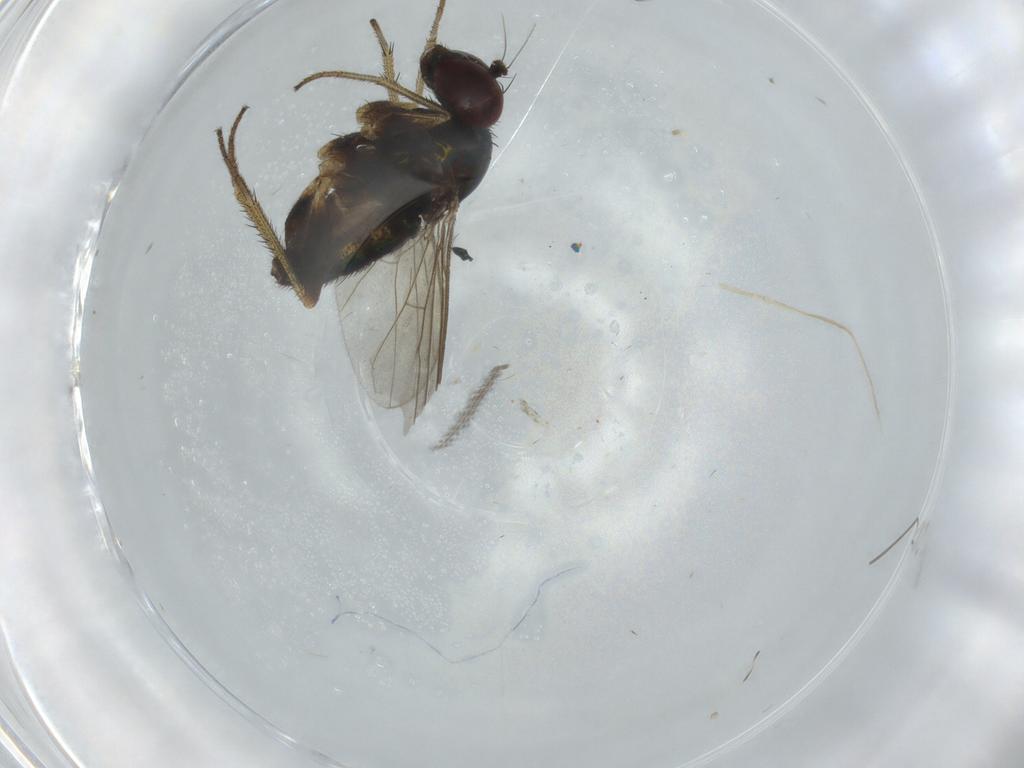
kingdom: Animalia
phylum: Arthropoda
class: Insecta
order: Diptera
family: Dolichopodidae
